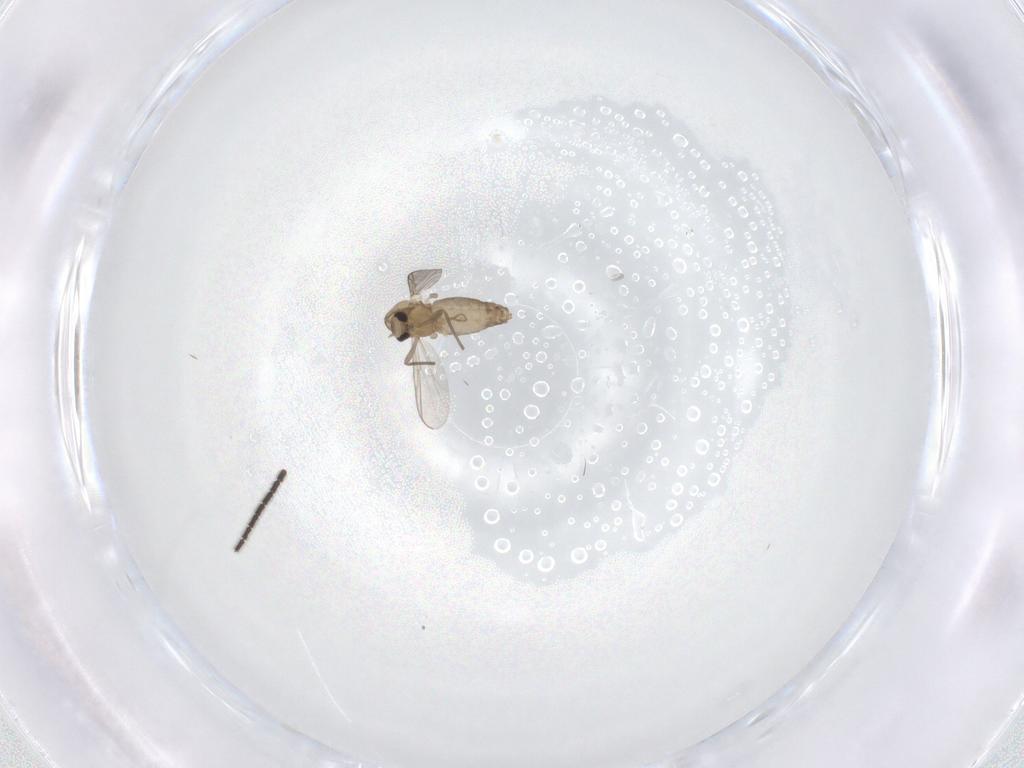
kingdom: Animalia
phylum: Arthropoda
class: Insecta
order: Diptera
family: Chironomidae
